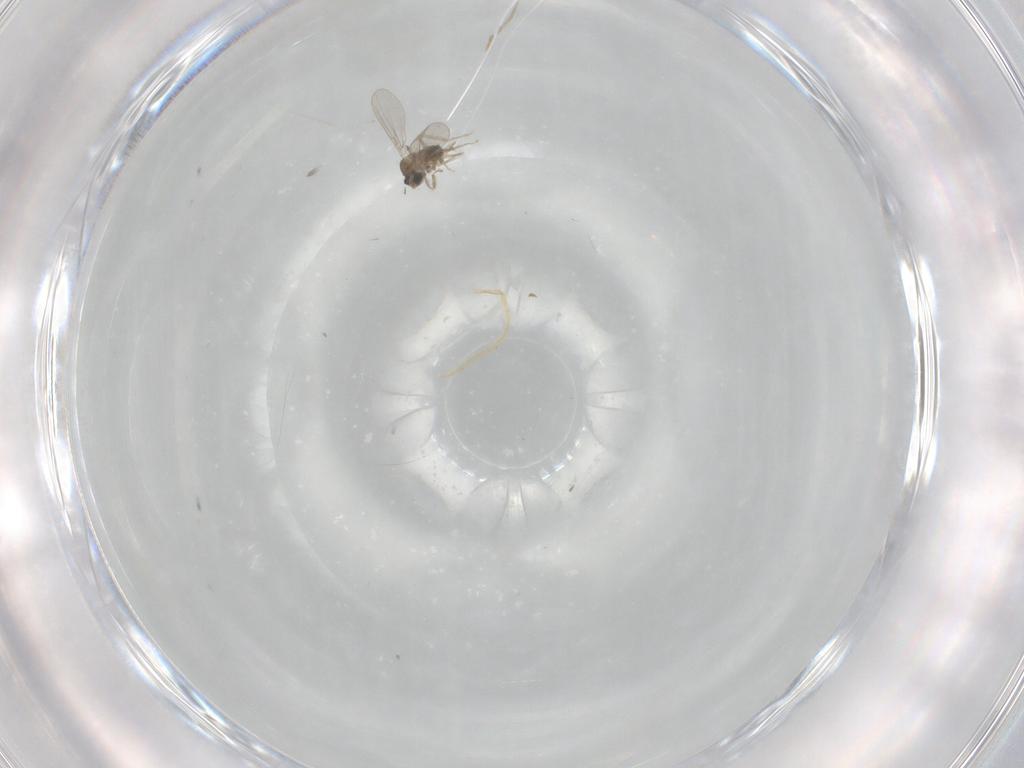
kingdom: Animalia
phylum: Arthropoda
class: Insecta
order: Diptera
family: Cecidomyiidae
